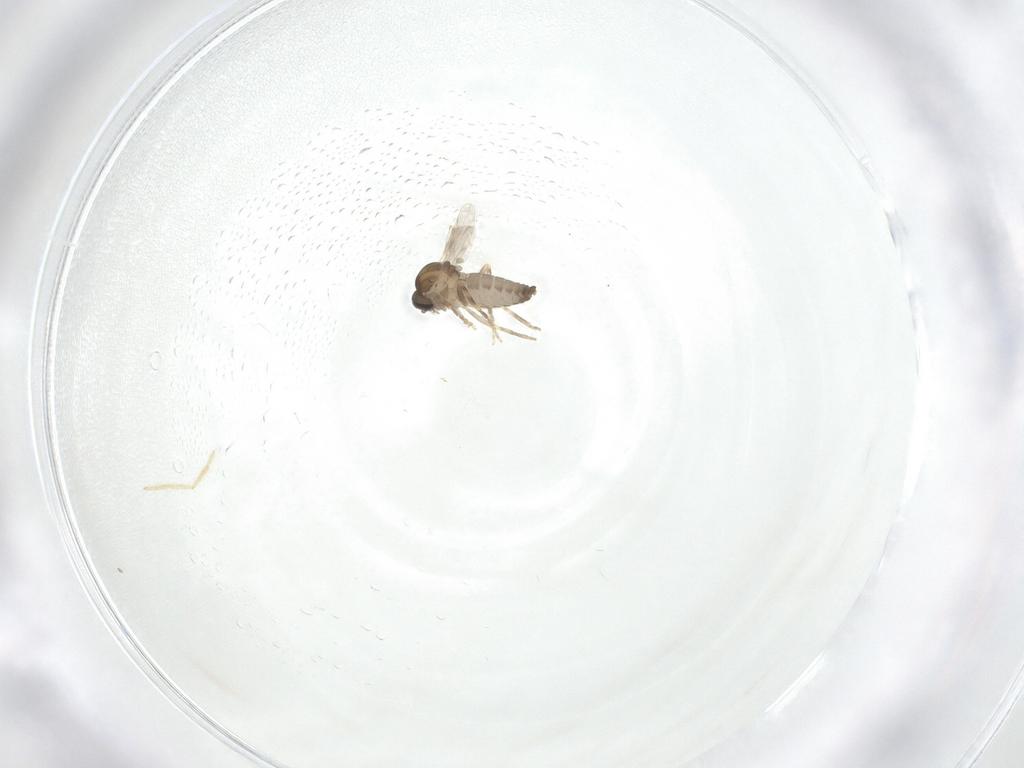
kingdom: Animalia
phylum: Arthropoda
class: Insecta
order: Diptera
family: Ceratopogonidae
